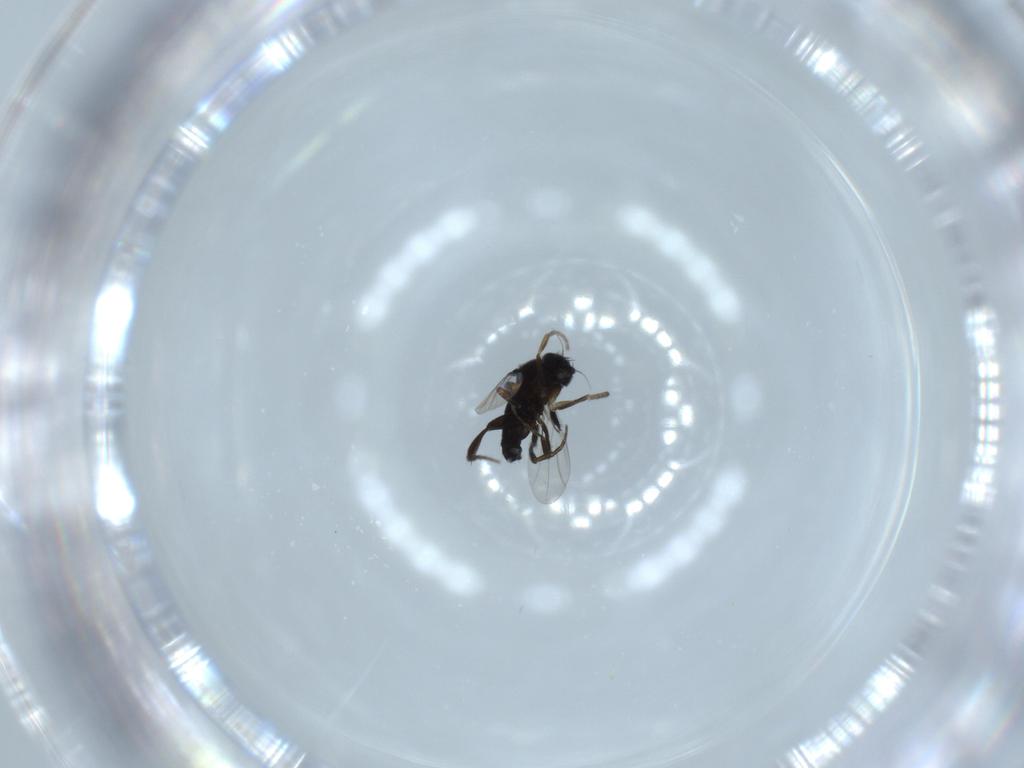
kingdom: Animalia
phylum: Arthropoda
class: Insecta
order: Diptera
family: Phoridae
